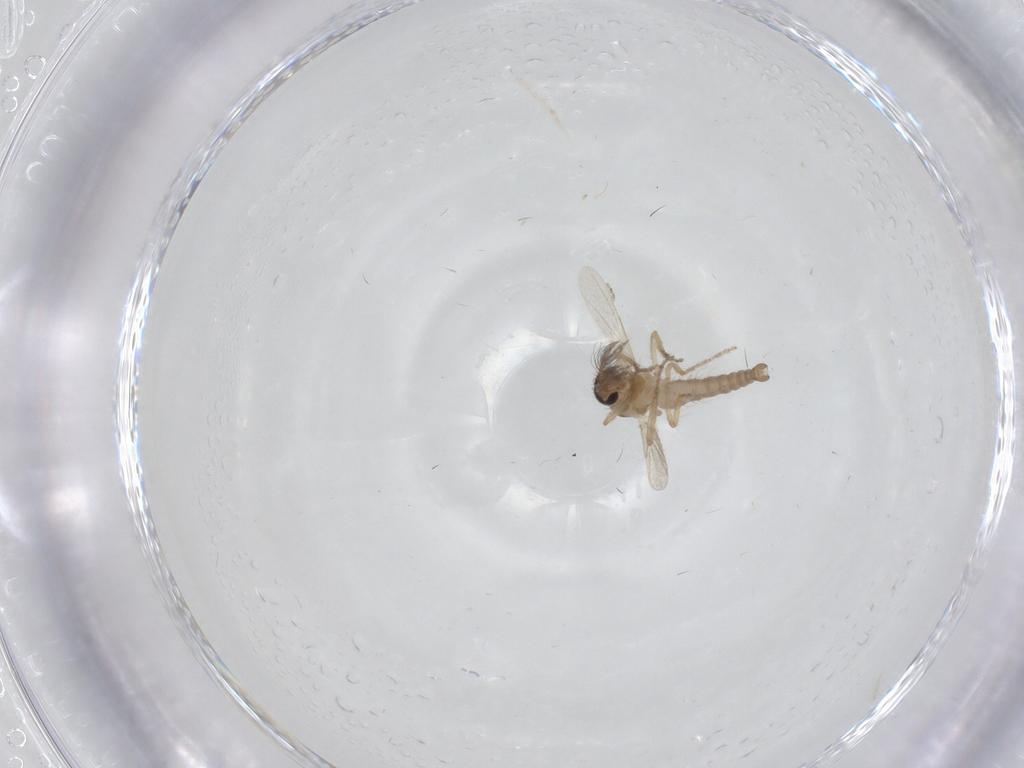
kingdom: Animalia
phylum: Arthropoda
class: Insecta
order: Diptera
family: Ceratopogonidae
